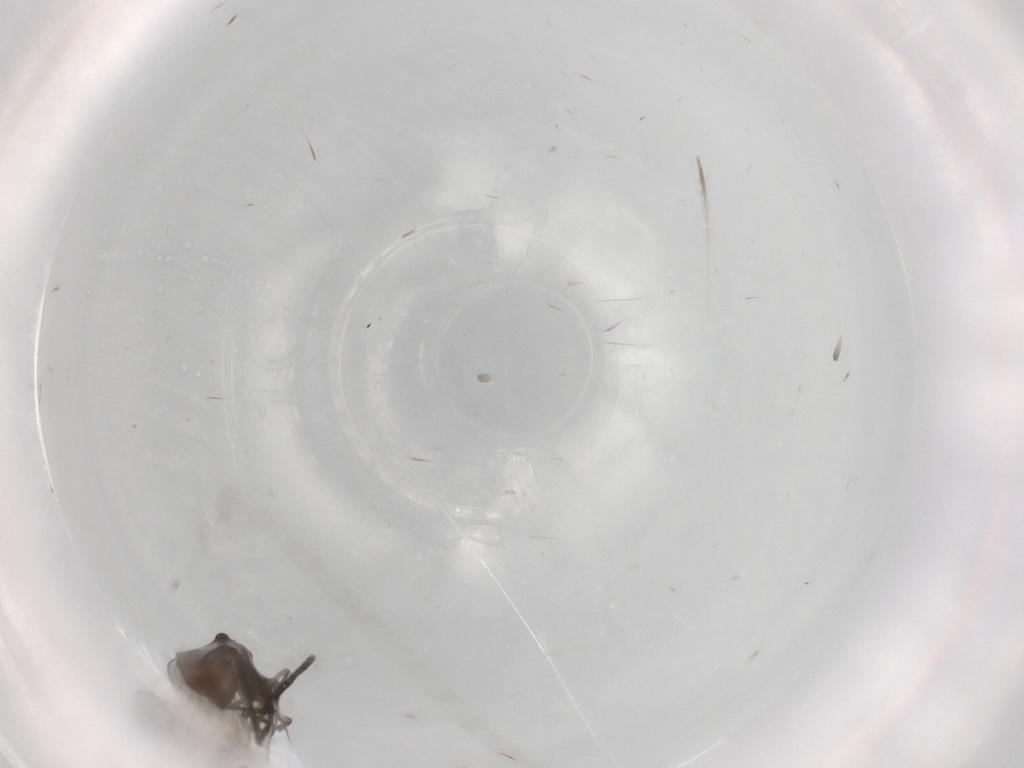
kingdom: Animalia
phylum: Arthropoda
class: Insecta
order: Diptera
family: Psychodidae
